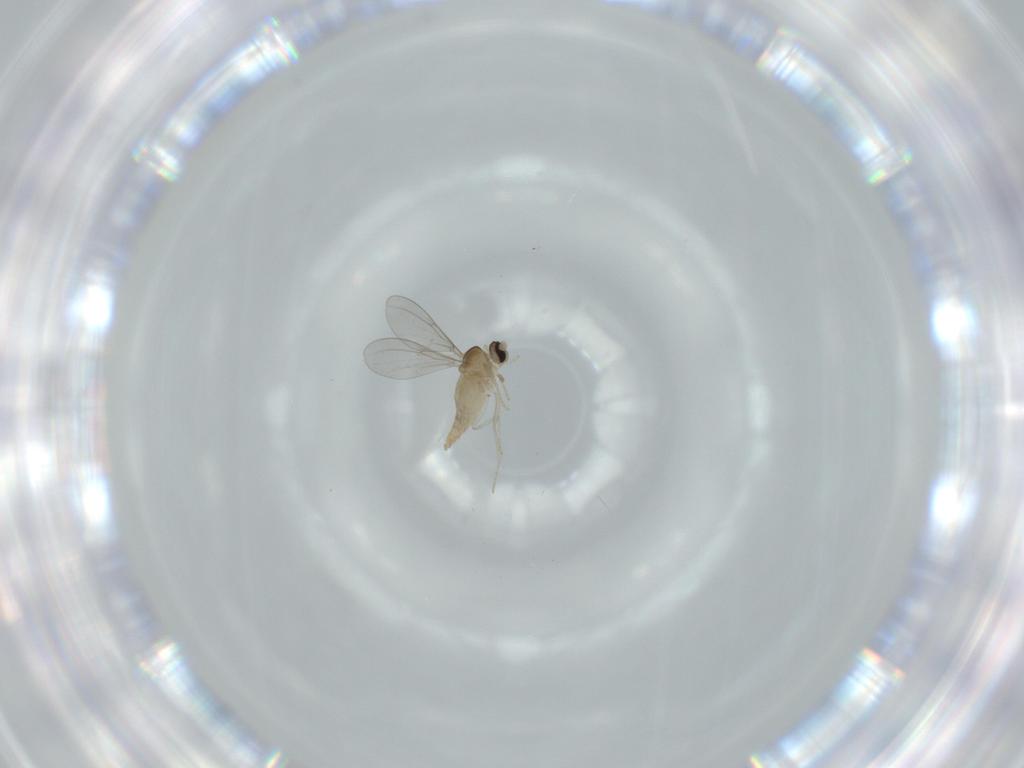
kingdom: Animalia
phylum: Arthropoda
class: Insecta
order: Diptera
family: Cecidomyiidae
